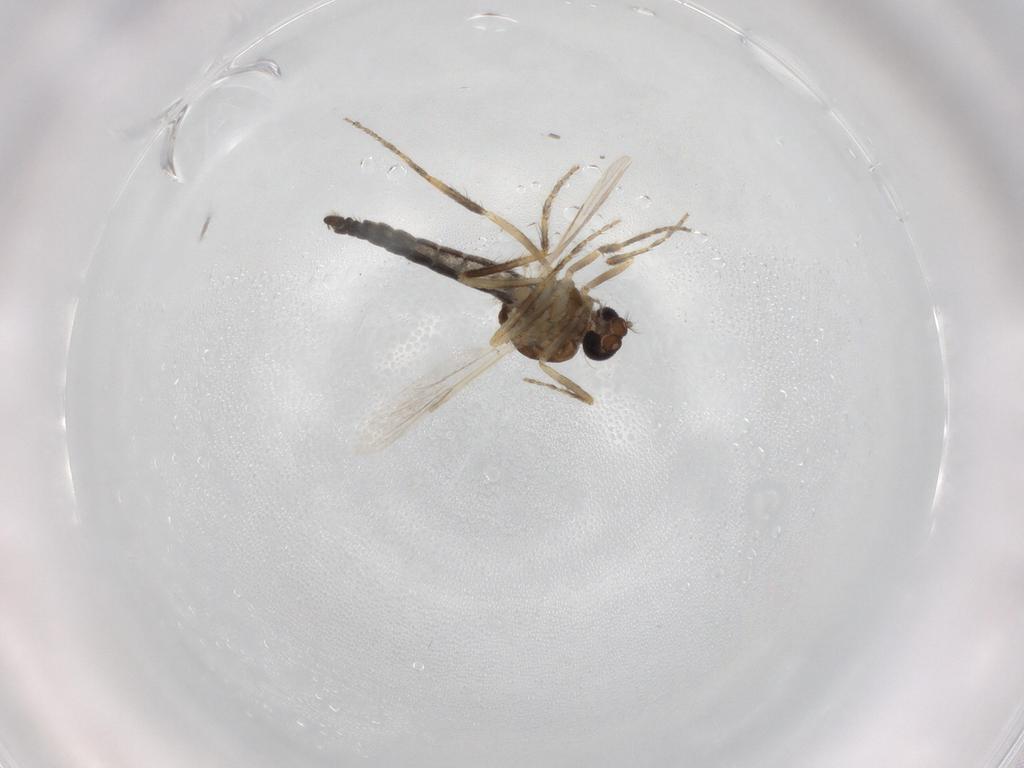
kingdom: Animalia
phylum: Arthropoda
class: Insecta
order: Diptera
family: Ceratopogonidae
